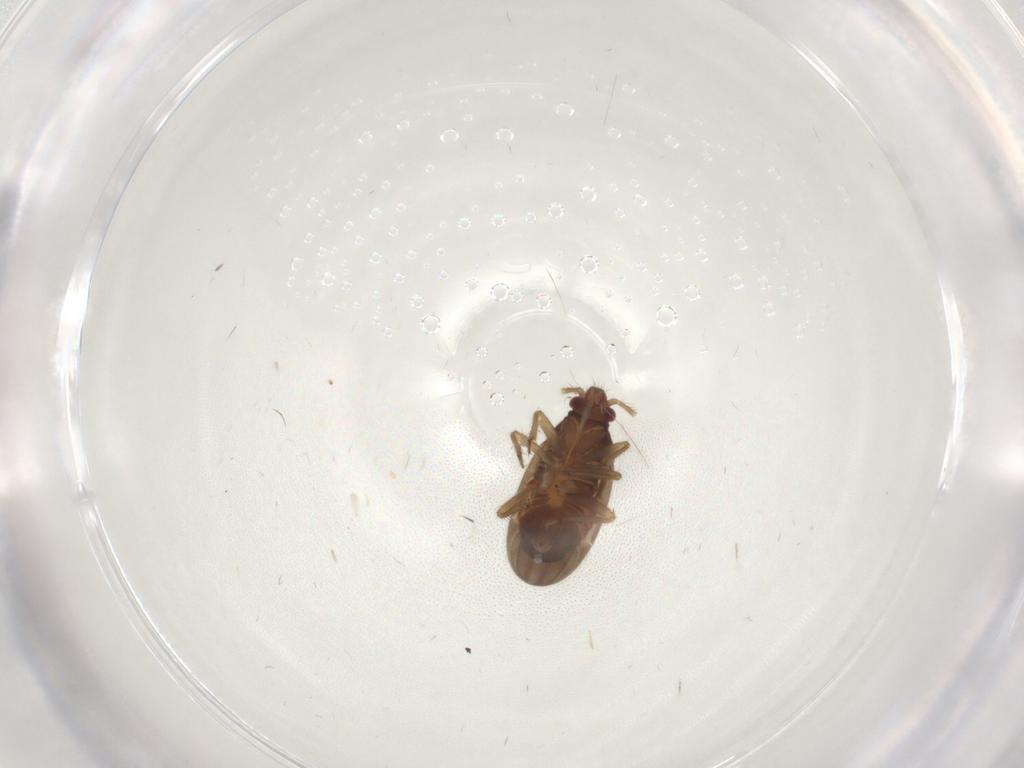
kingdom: Animalia
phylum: Arthropoda
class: Insecta
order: Hemiptera
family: Ceratocombidae
